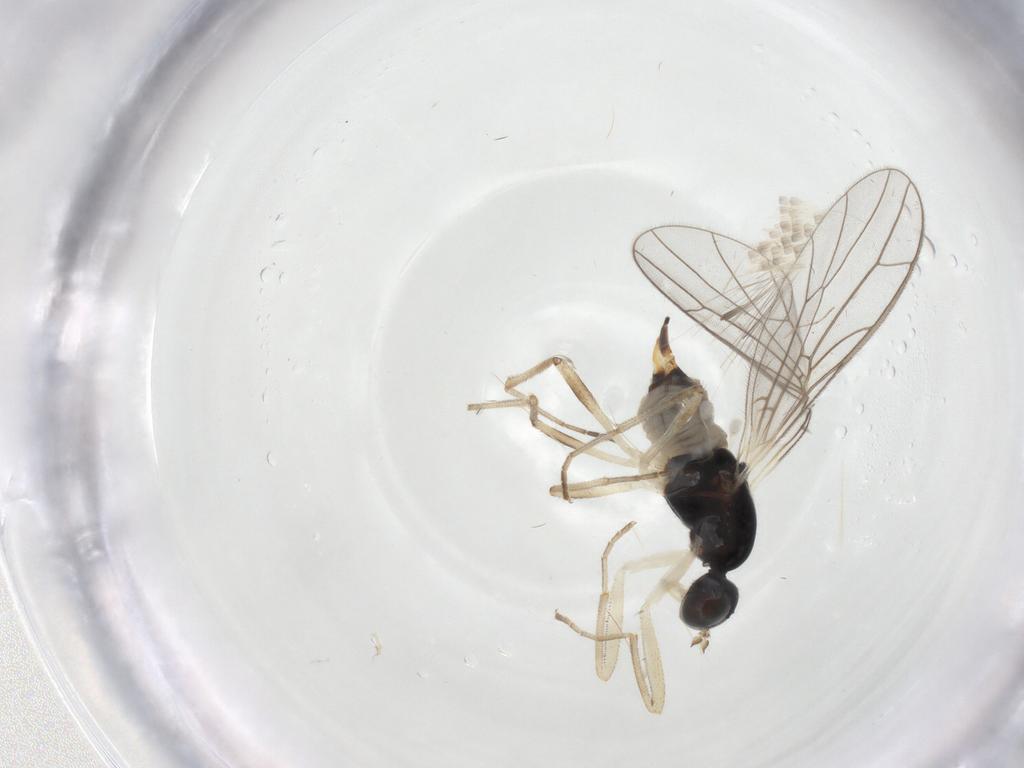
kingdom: Animalia
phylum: Arthropoda
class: Insecta
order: Diptera
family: Empididae
